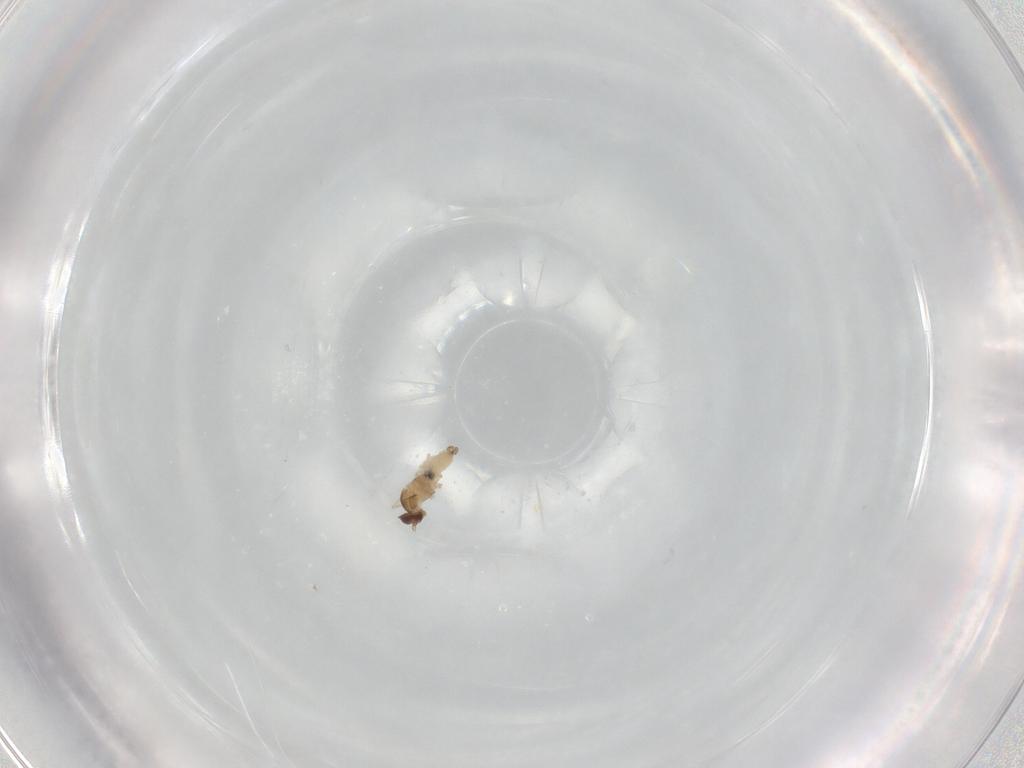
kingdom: Animalia
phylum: Arthropoda
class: Insecta
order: Diptera
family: Cecidomyiidae
